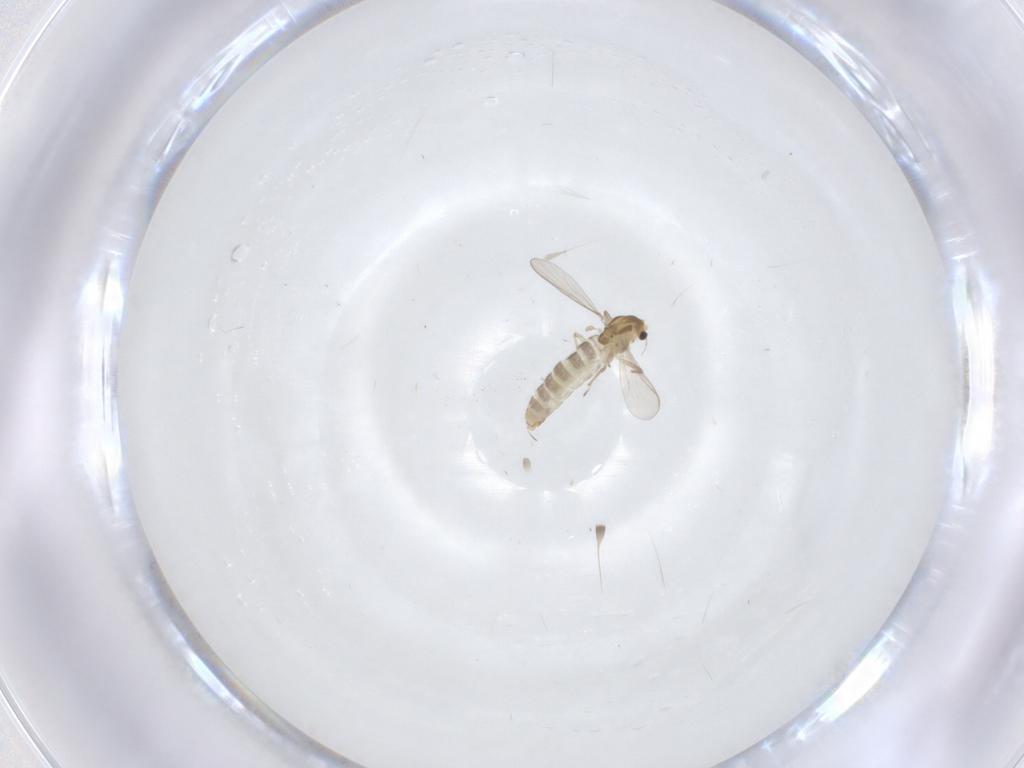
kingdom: Animalia
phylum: Arthropoda
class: Insecta
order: Diptera
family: Chironomidae
